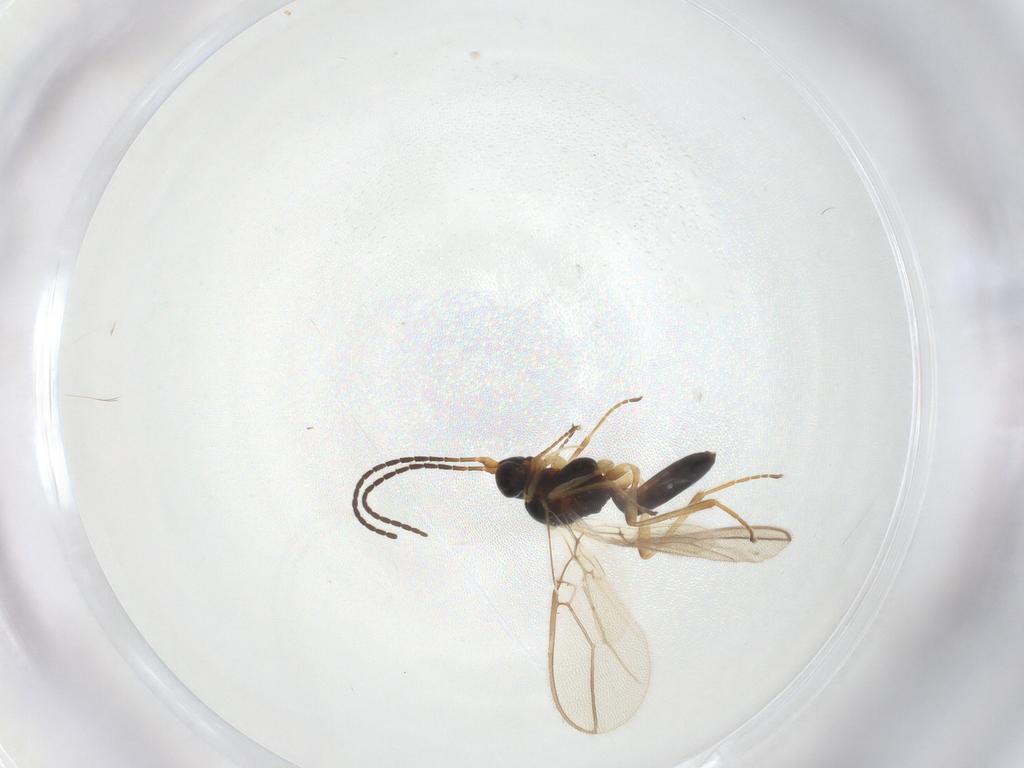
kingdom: Animalia
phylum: Arthropoda
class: Insecta
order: Hymenoptera
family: Braconidae
